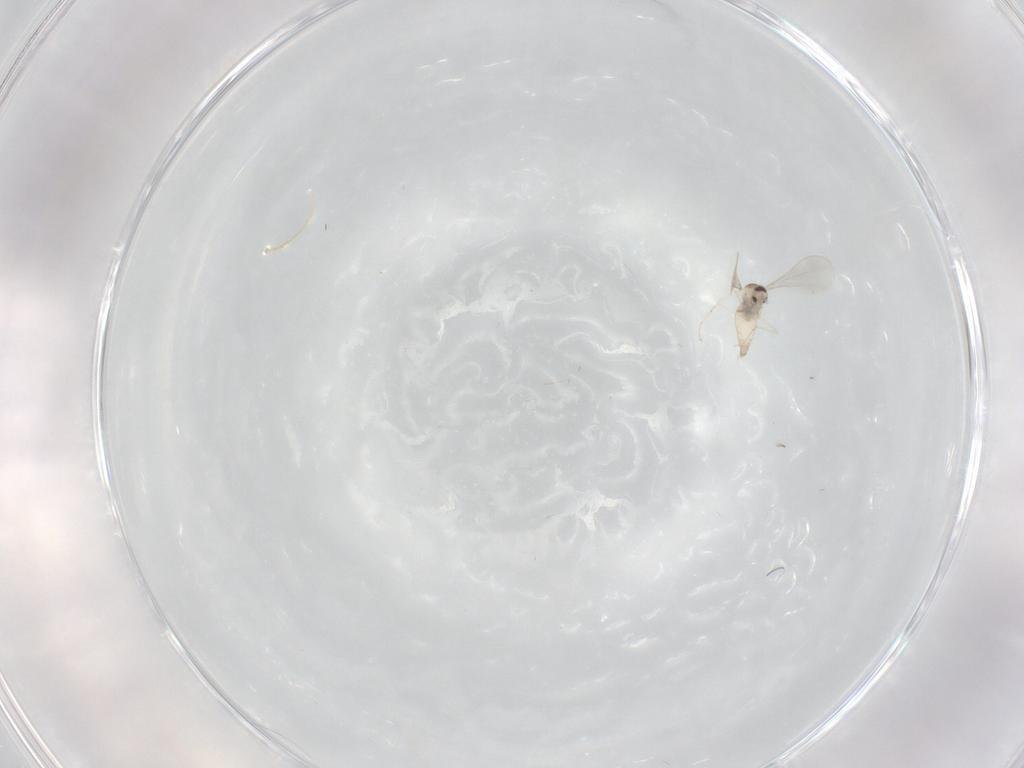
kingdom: Animalia
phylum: Arthropoda
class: Insecta
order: Diptera
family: Cecidomyiidae
